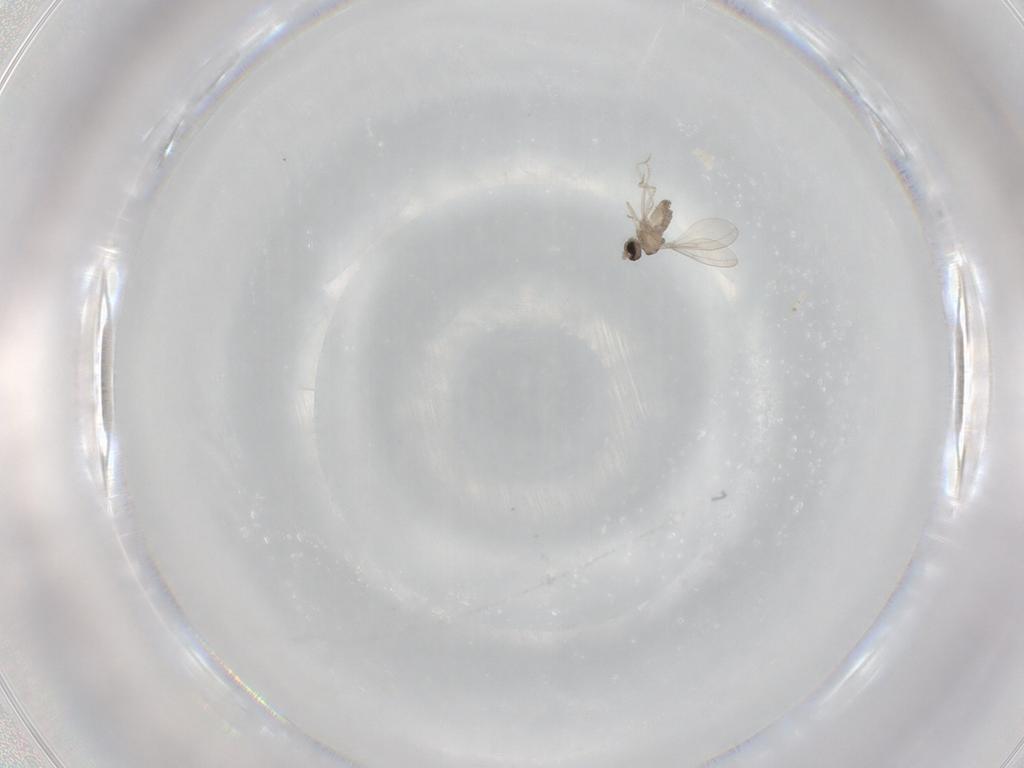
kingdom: Animalia
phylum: Arthropoda
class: Insecta
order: Diptera
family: Cecidomyiidae
